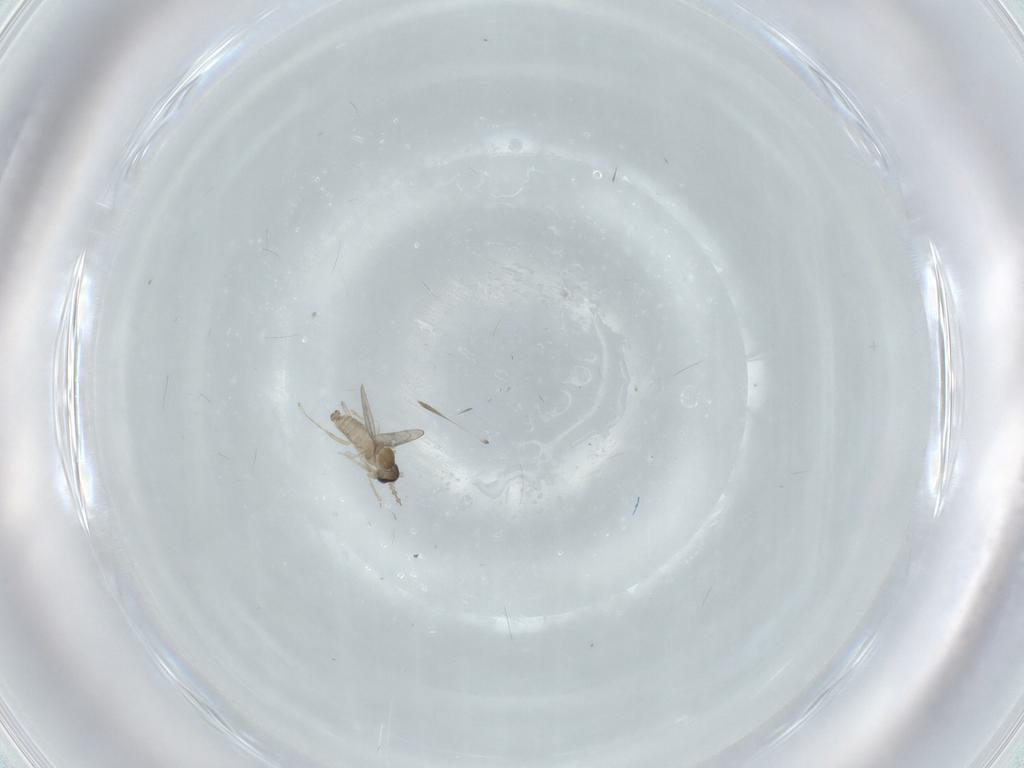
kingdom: Animalia
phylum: Arthropoda
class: Insecta
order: Diptera
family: Cecidomyiidae
